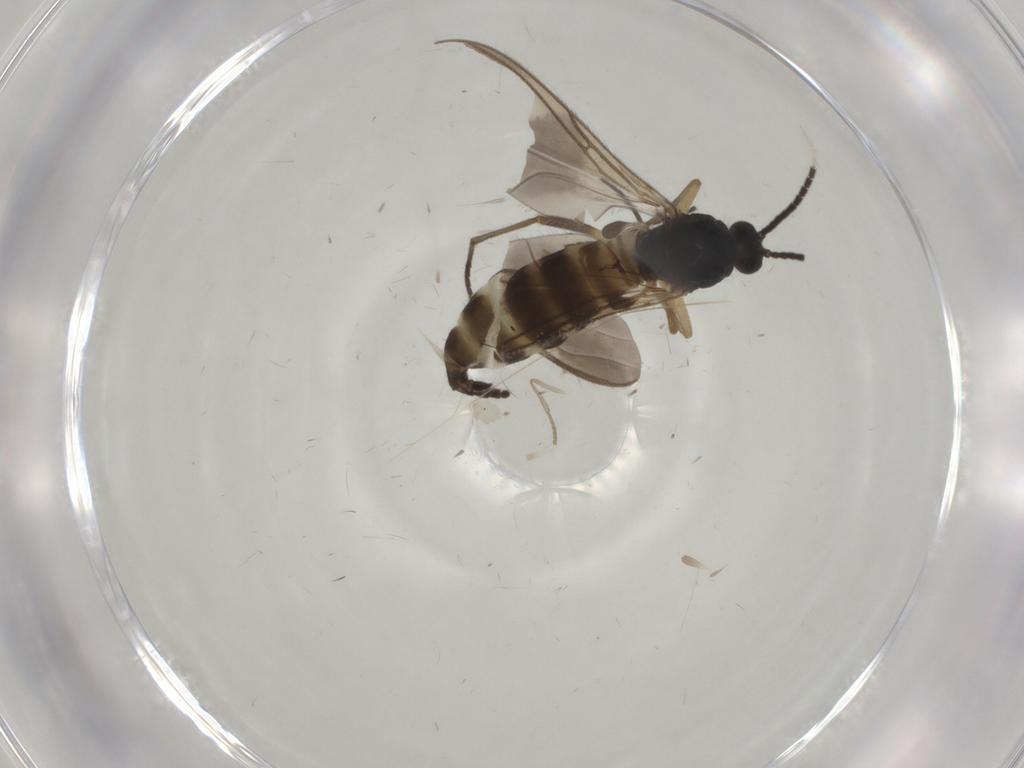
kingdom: Animalia
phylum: Arthropoda
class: Insecta
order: Diptera
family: Sciaridae
